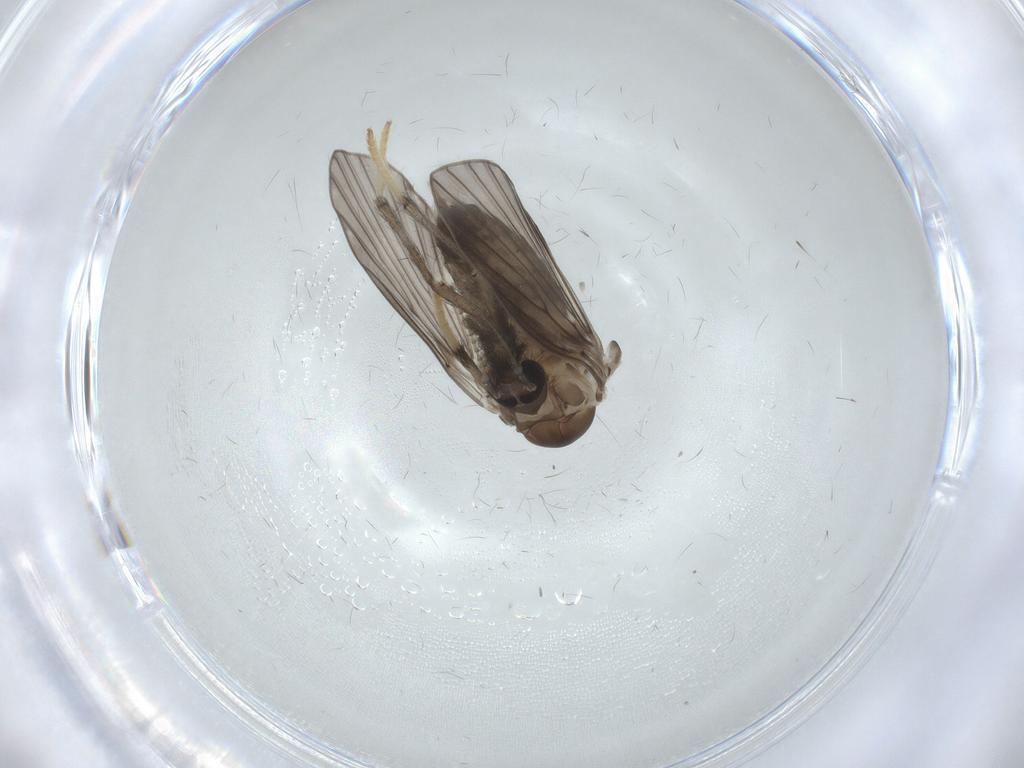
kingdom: Animalia
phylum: Arthropoda
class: Insecta
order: Diptera
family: Psychodidae
